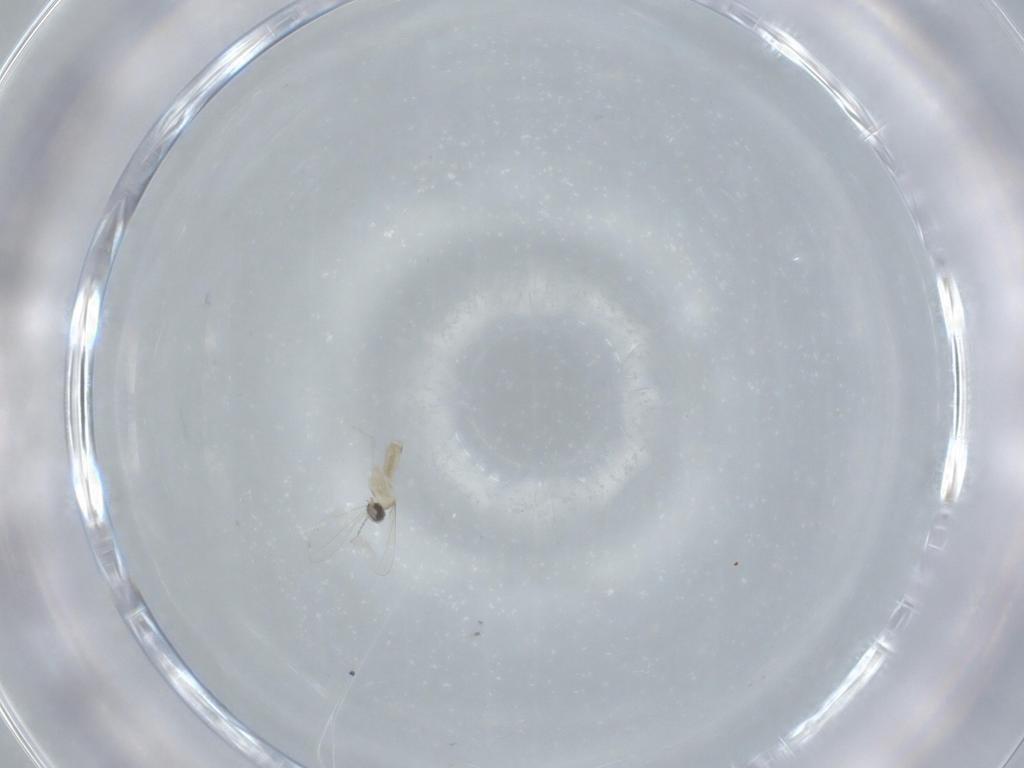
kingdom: Animalia
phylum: Arthropoda
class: Insecta
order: Diptera
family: Cecidomyiidae
